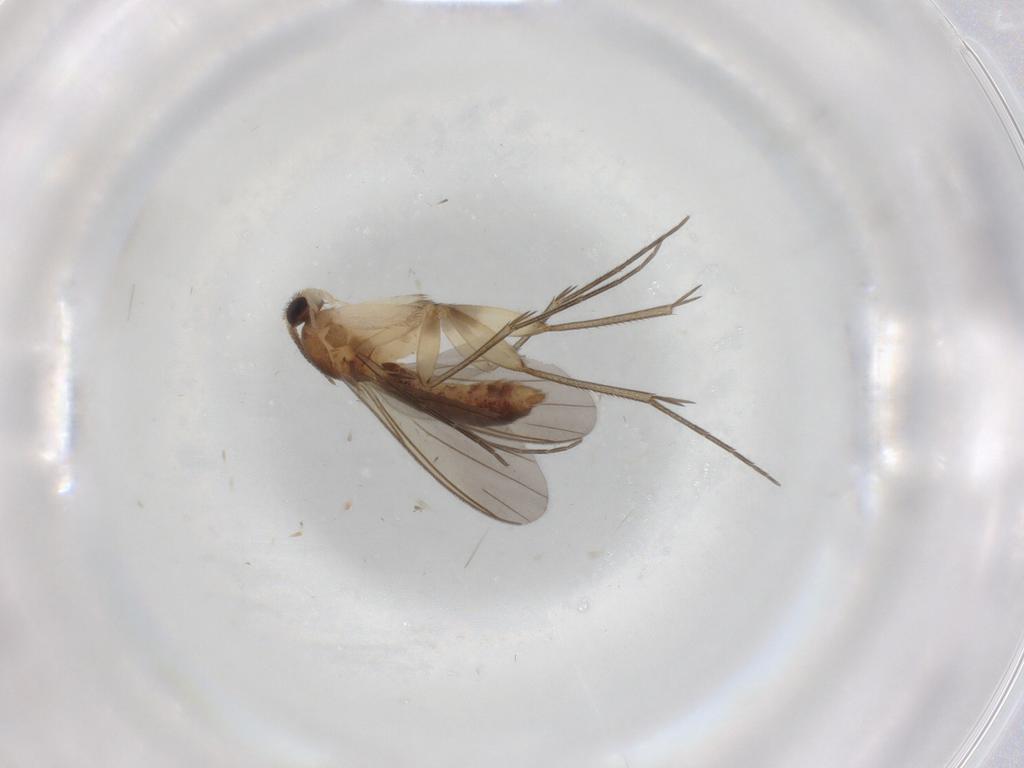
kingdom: Animalia
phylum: Arthropoda
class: Insecta
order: Diptera
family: Mycetophilidae
